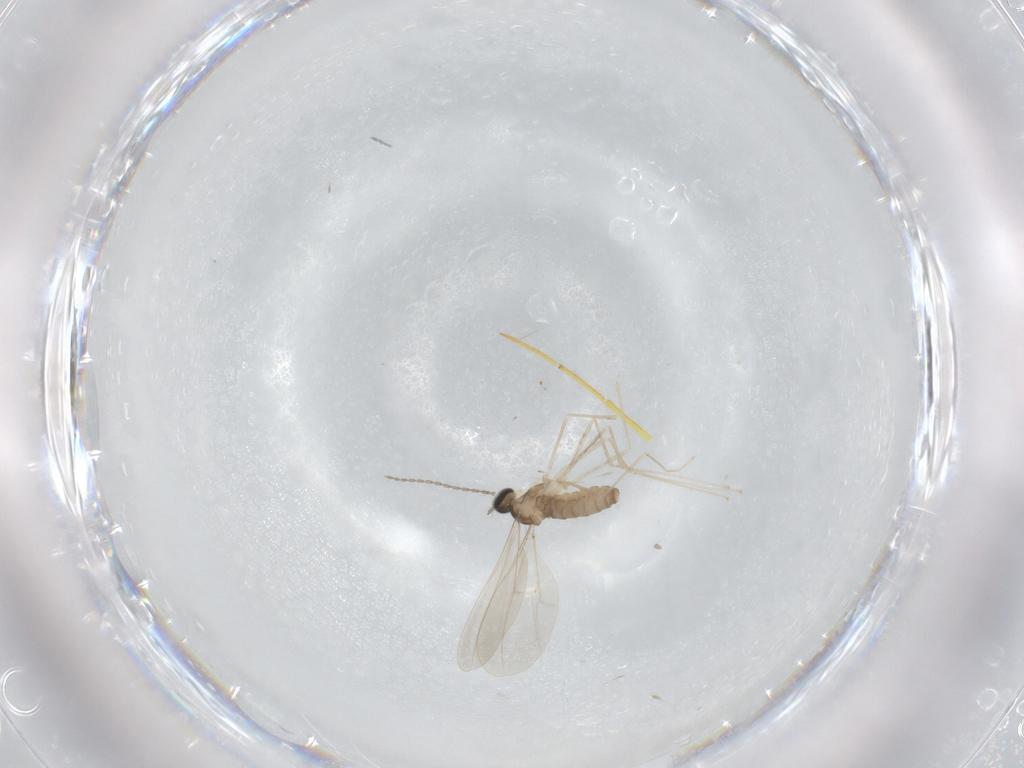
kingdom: Animalia
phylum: Arthropoda
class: Insecta
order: Diptera
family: Cecidomyiidae
